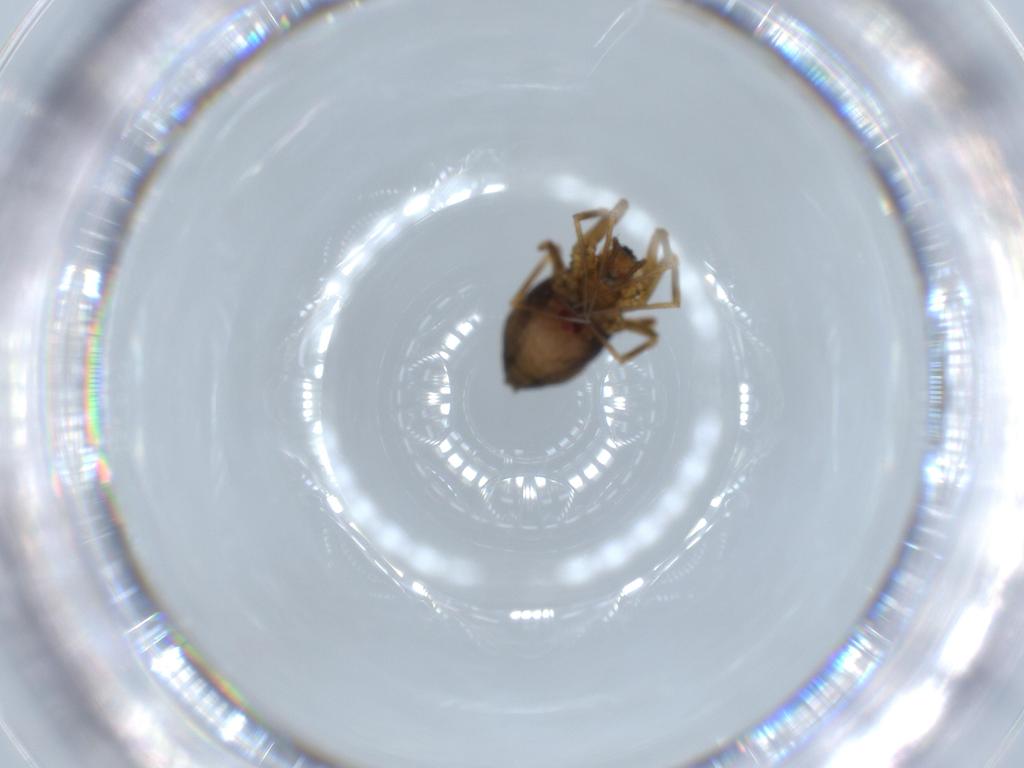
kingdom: Animalia
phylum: Arthropoda
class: Arachnida
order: Araneae
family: Linyphiidae
